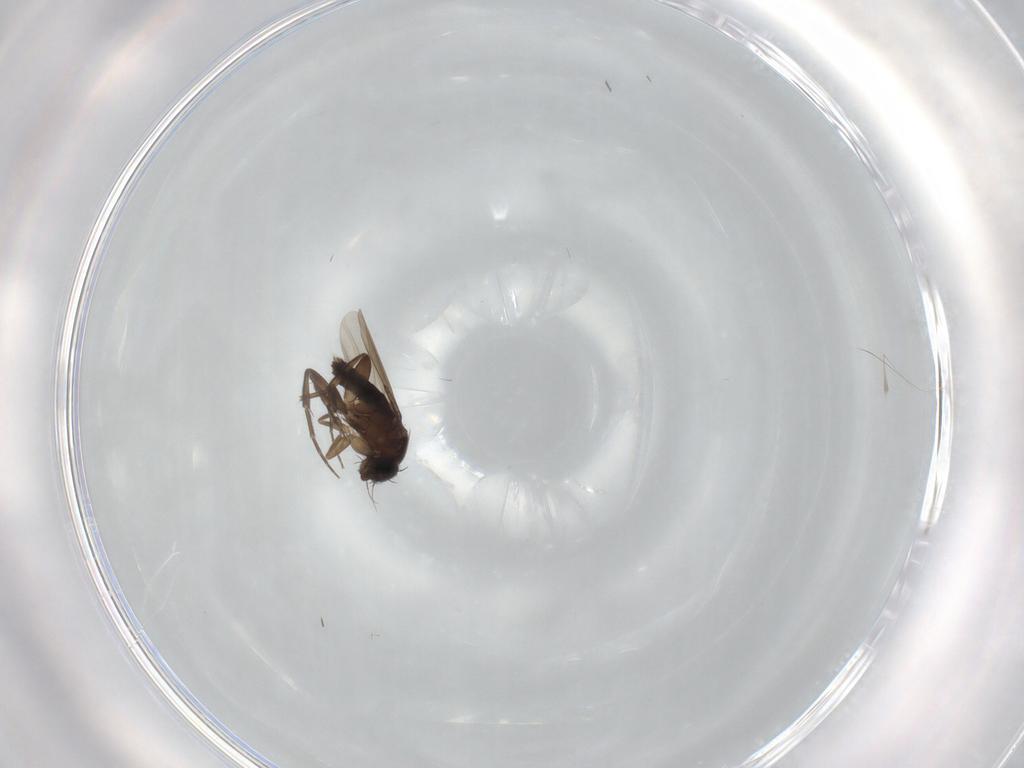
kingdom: Animalia
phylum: Arthropoda
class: Insecta
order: Diptera
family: Phoridae
